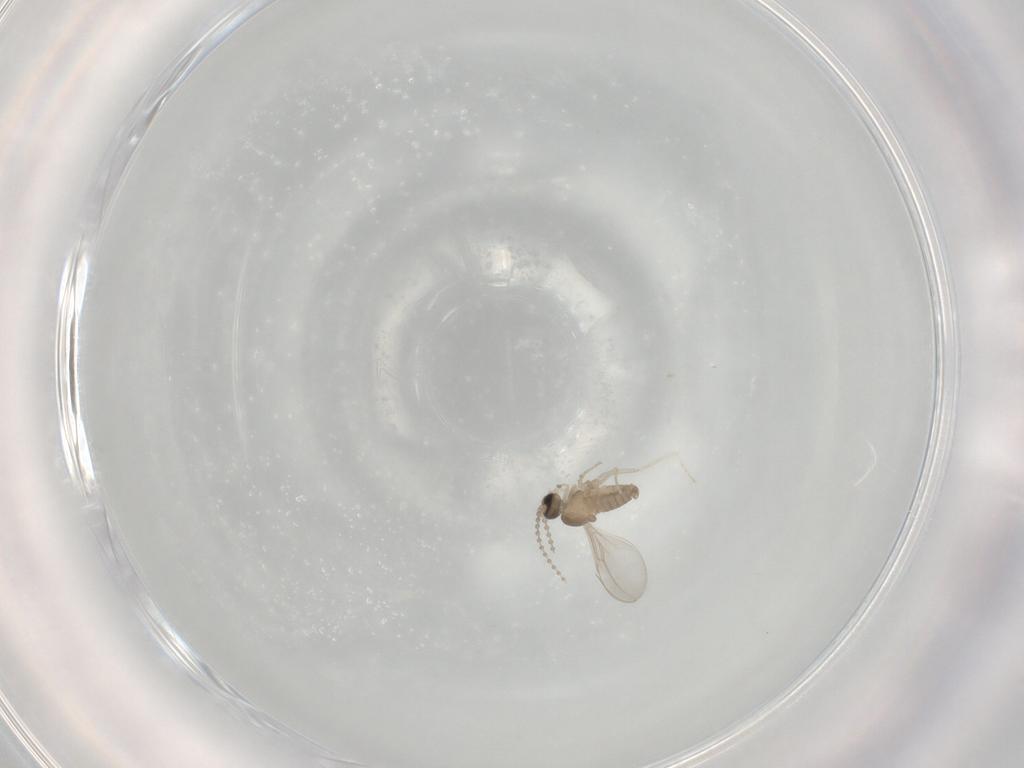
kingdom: Animalia
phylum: Arthropoda
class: Insecta
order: Diptera
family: Cecidomyiidae
